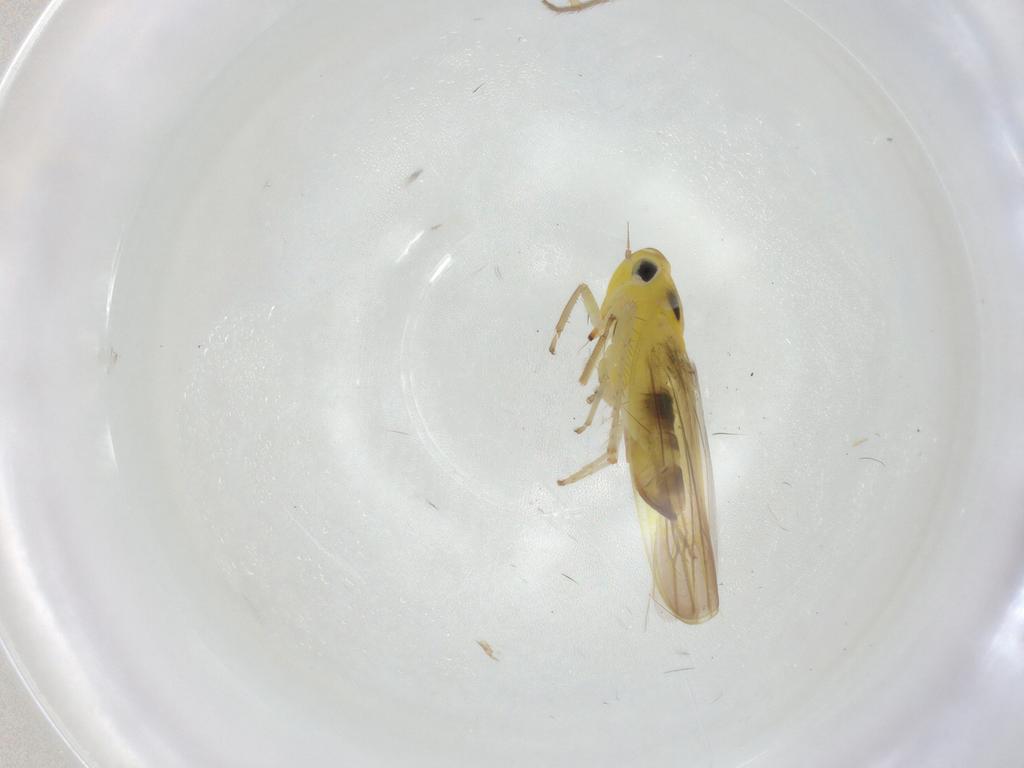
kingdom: Animalia
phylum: Arthropoda
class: Insecta
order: Hemiptera
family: Cicadellidae
